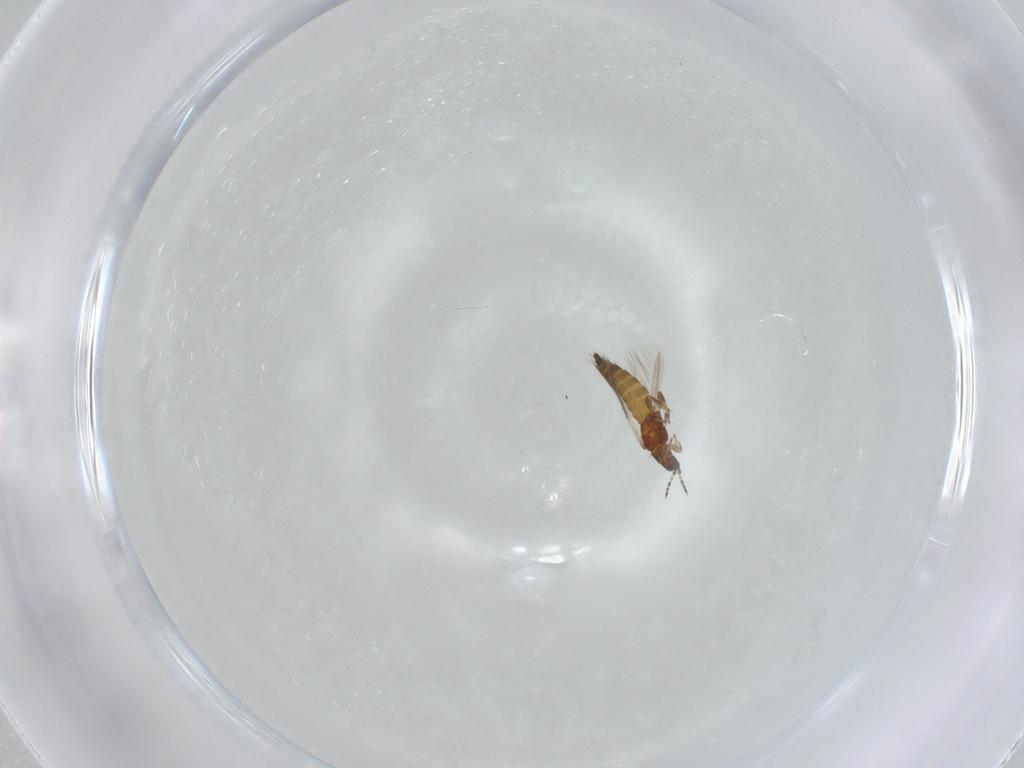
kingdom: Animalia
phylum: Arthropoda
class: Insecta
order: Thysanoptera
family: Thripidae
